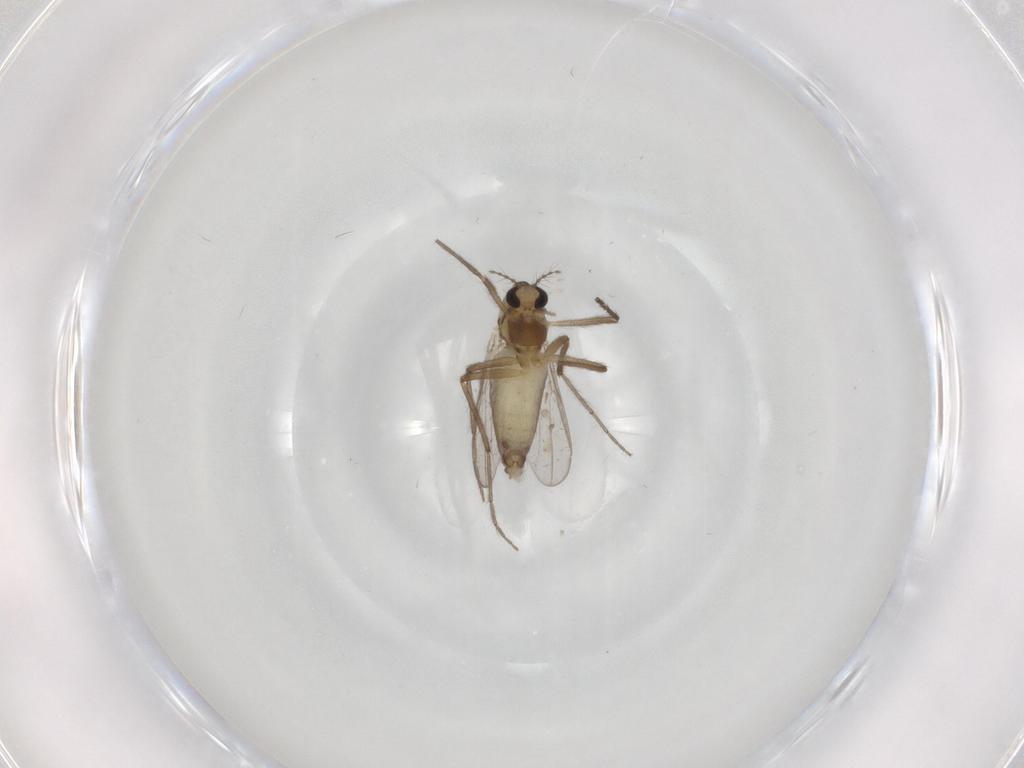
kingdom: Animalia
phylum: Arthropoda
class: Insecta
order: Diptera
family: Chironomidae
